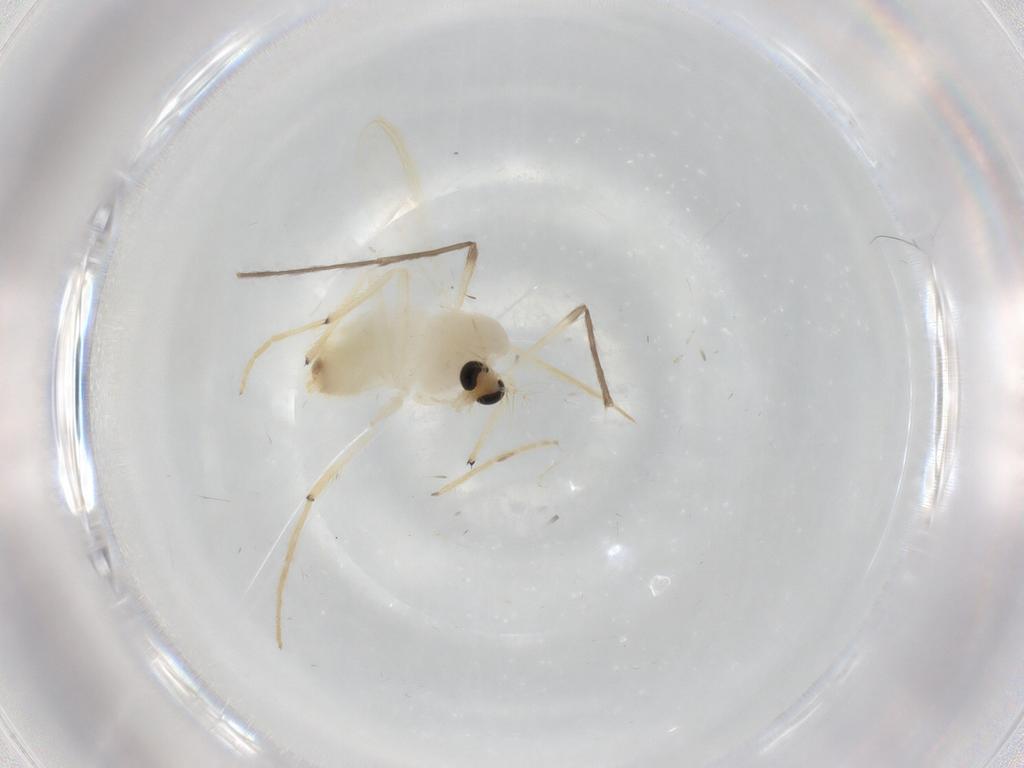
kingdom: Animalia
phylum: Arthropoda
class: Insecta
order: Diptera
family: Chironomidae
